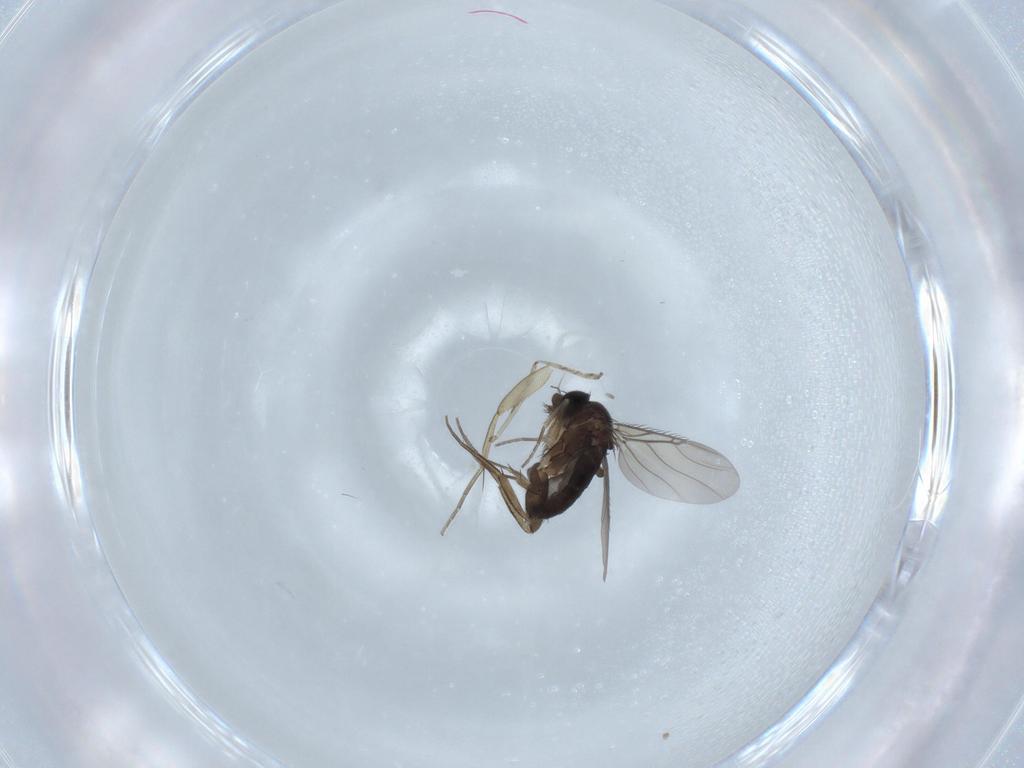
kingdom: Animalia
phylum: Arthropoda
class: Insecta
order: Diptera
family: Phoridae
